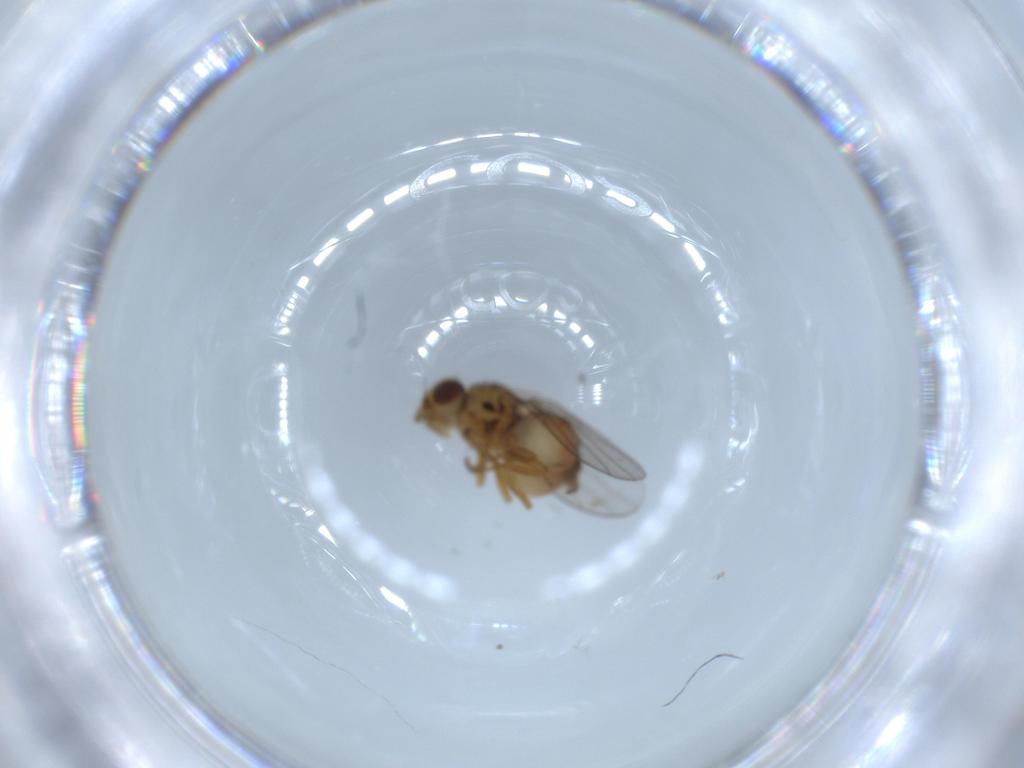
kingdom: Animalia
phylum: Arthropoda
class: Insecta
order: Diptera
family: Chloropidae
